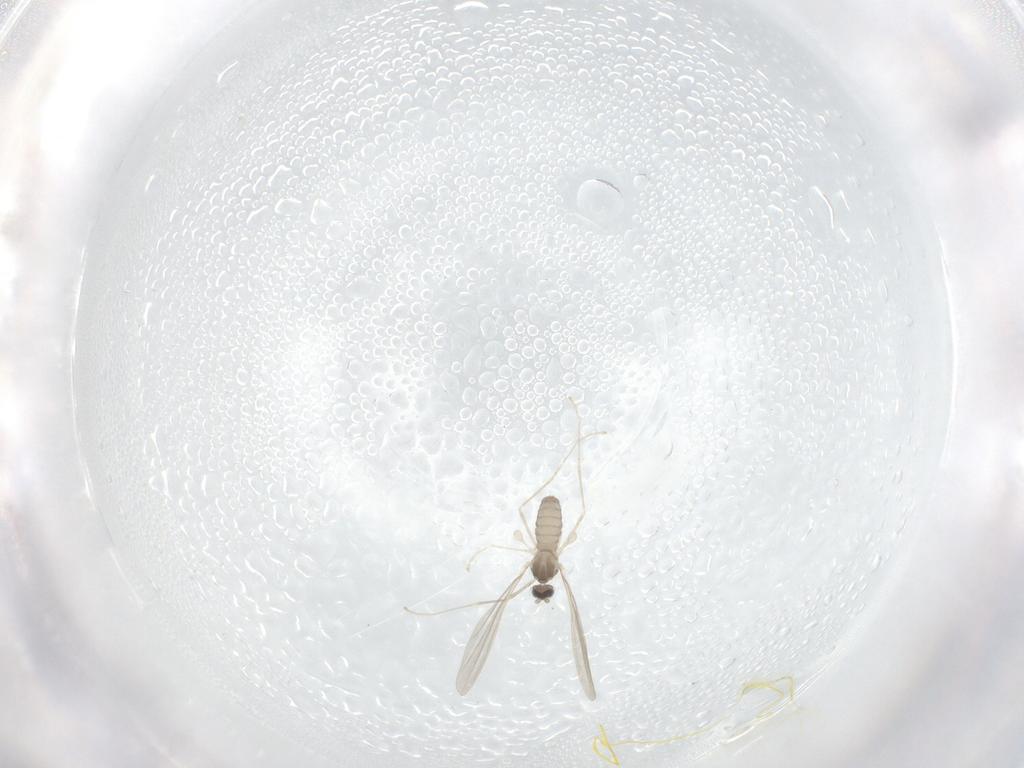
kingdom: Animalia
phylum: Arthropoda
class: Insecta
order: Diptera
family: Cecidomyiidae
